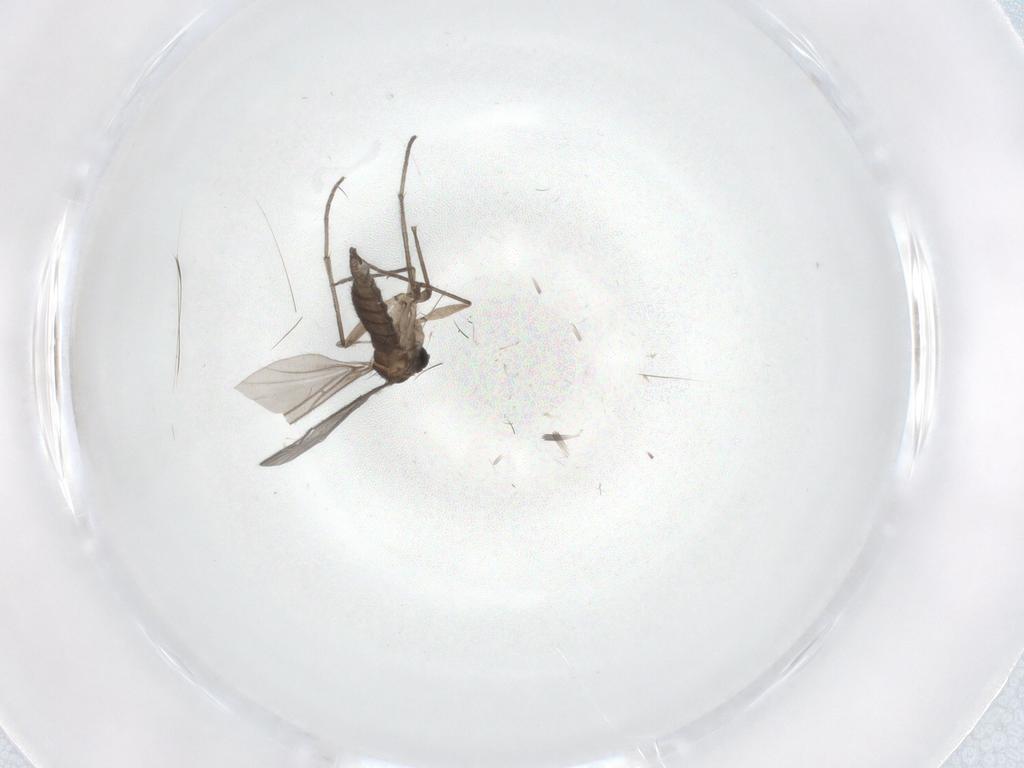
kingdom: Animalia
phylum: Arthropoda
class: Insecta
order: Diptera
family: Sciaridae
